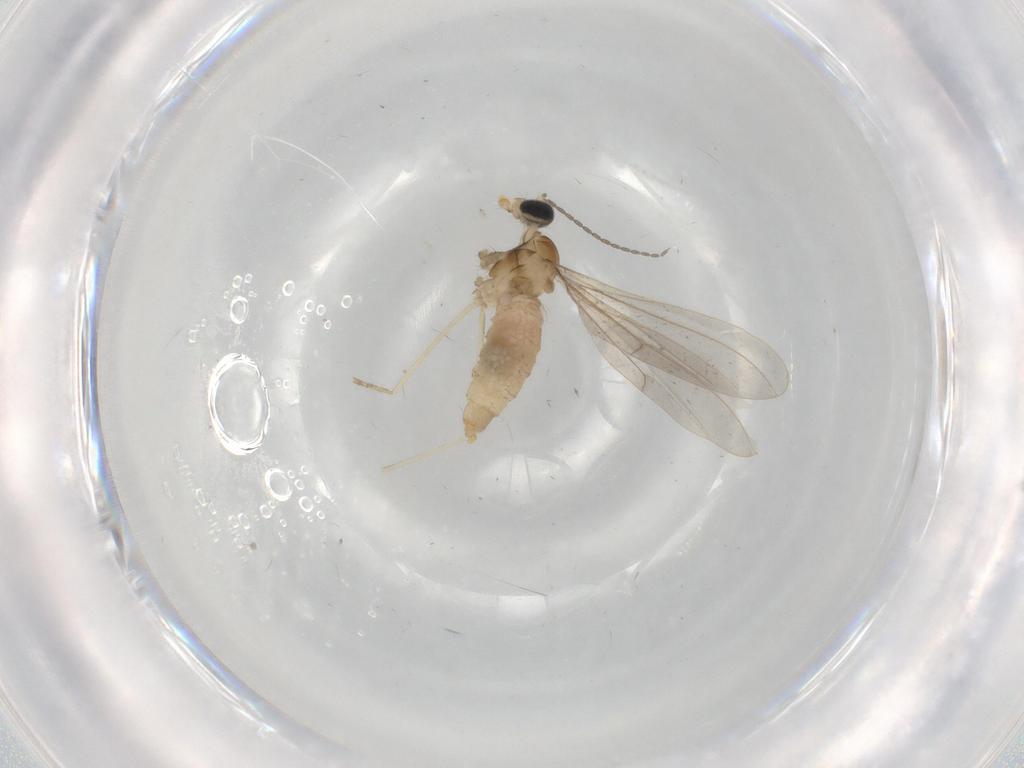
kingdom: Animalia
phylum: Arthropoda
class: Insecta
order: Diptera
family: Cecidomyiidae
